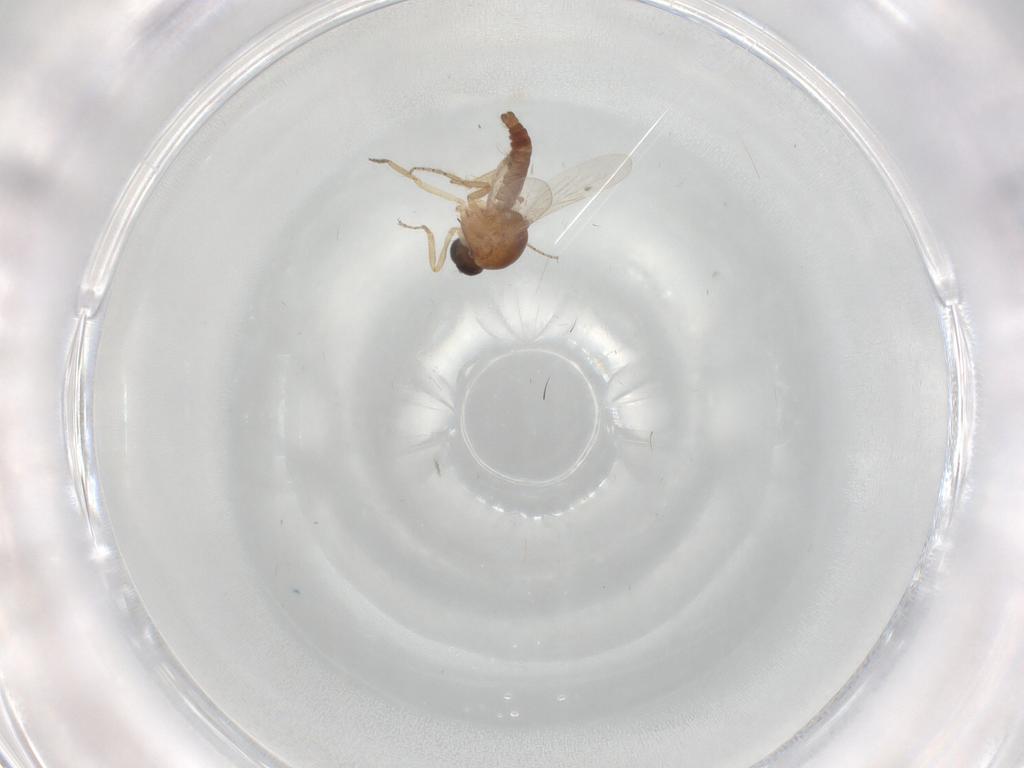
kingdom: Animalia
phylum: Arthropoda
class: Insecta
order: Diptera
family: Ceratopogonidae
